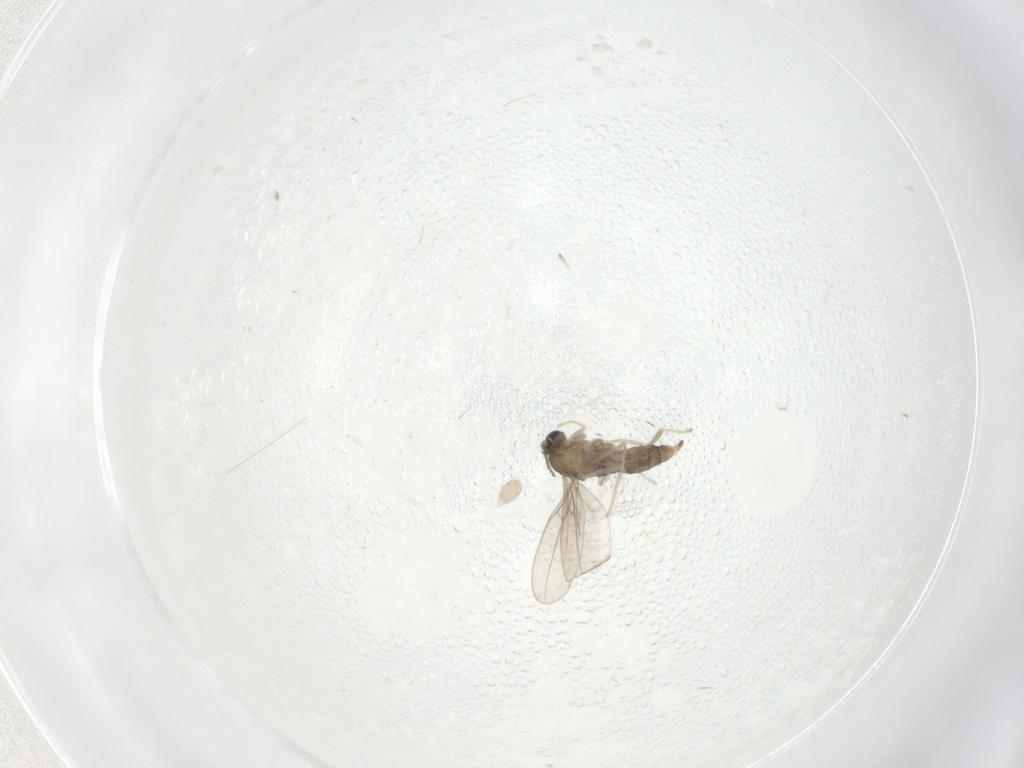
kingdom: Animalia
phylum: Arthropoda
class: Insecta
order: Diptera
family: Cecidomyiidae
